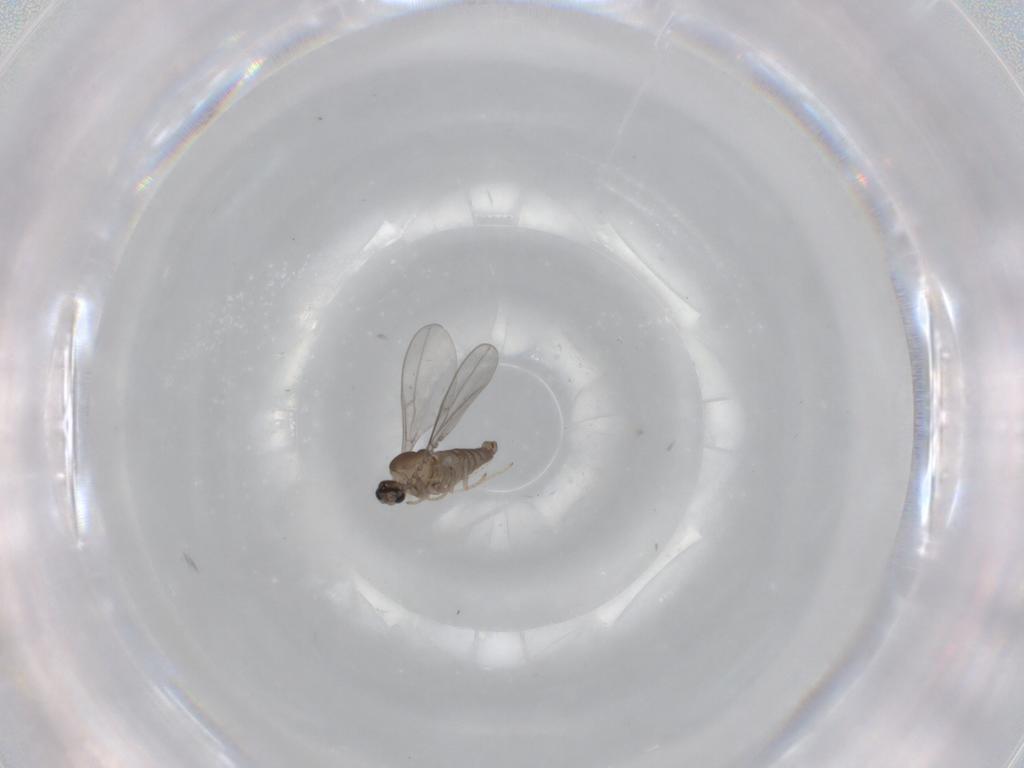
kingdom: Animalia
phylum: Arthropoda
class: Insecta
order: Diptera
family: Cecidomyiidae
